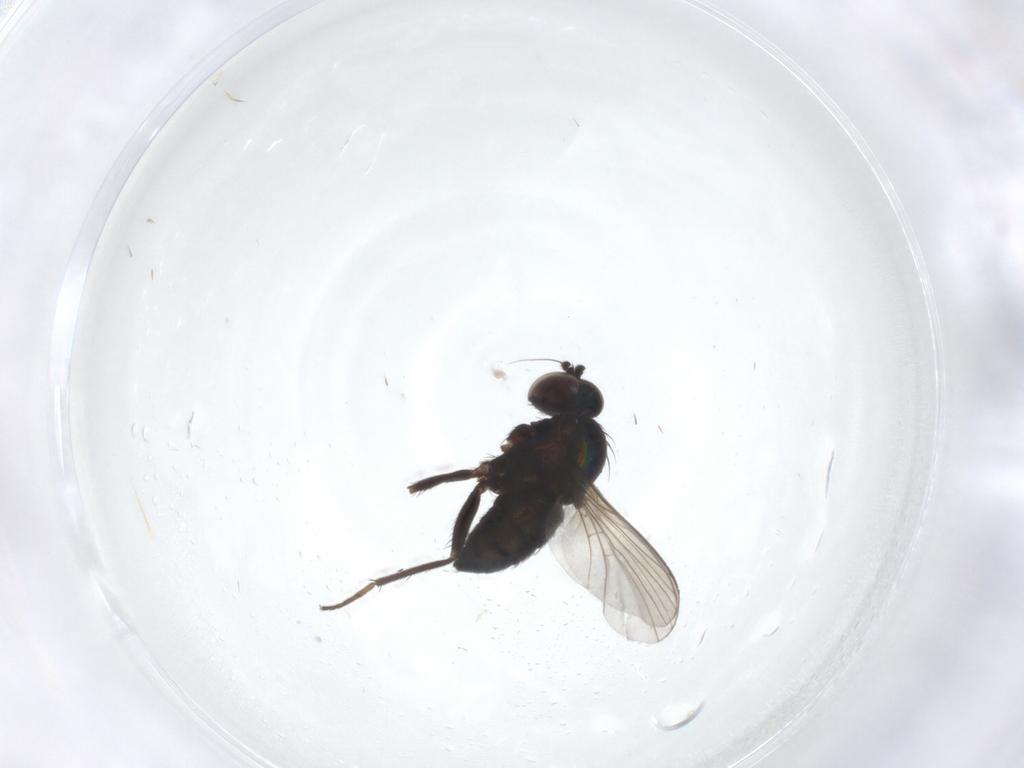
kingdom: Animalia
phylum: Arthropoda
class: Insecta
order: Diptera
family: Dolichopodidae
